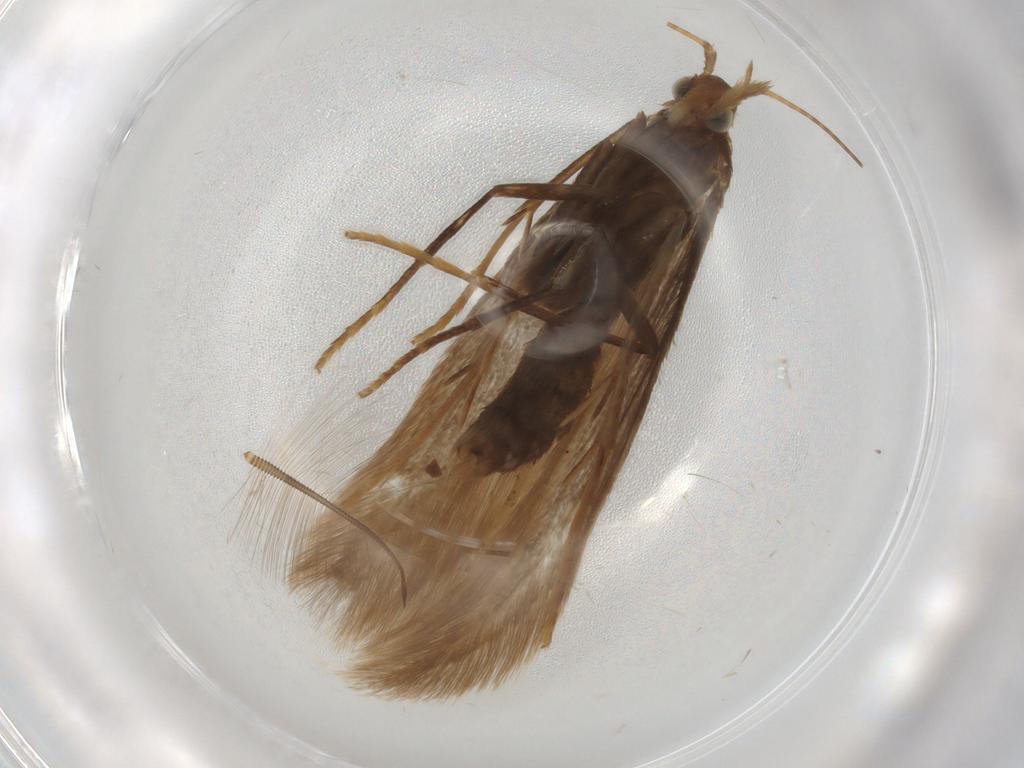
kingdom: Animalia
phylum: Arthropoda
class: Insecta
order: Lepidoptera
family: Coleophoridae
